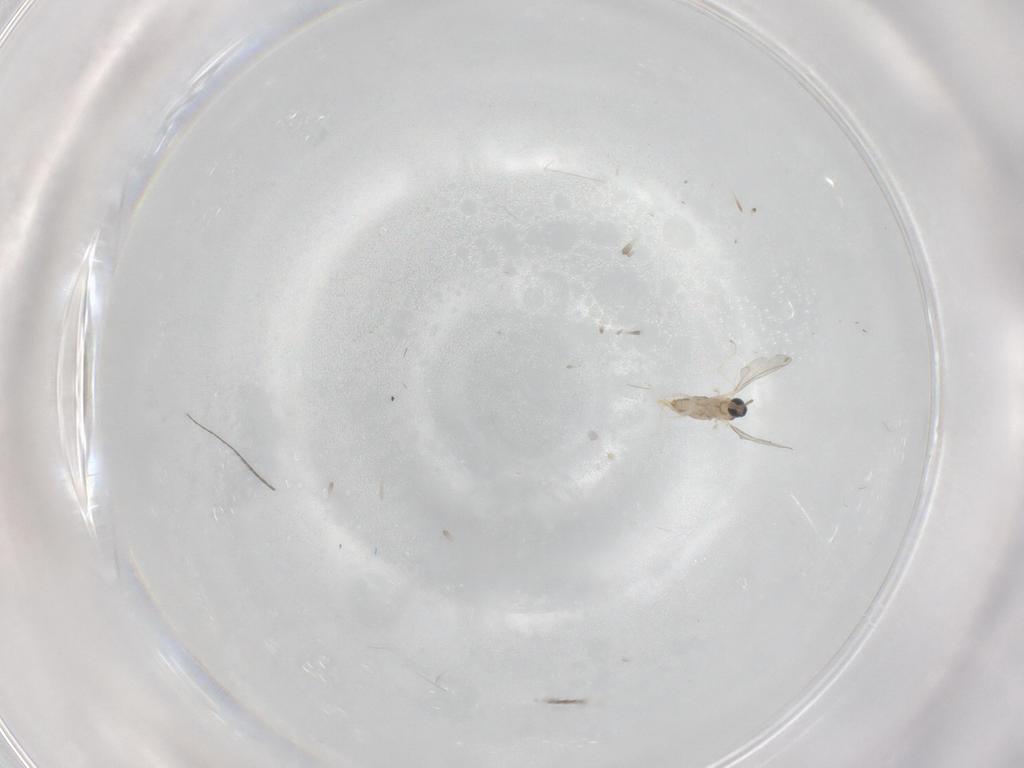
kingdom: Animalia
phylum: Arthropoda
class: Insecta
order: Diptera
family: Cecidomyiidae
